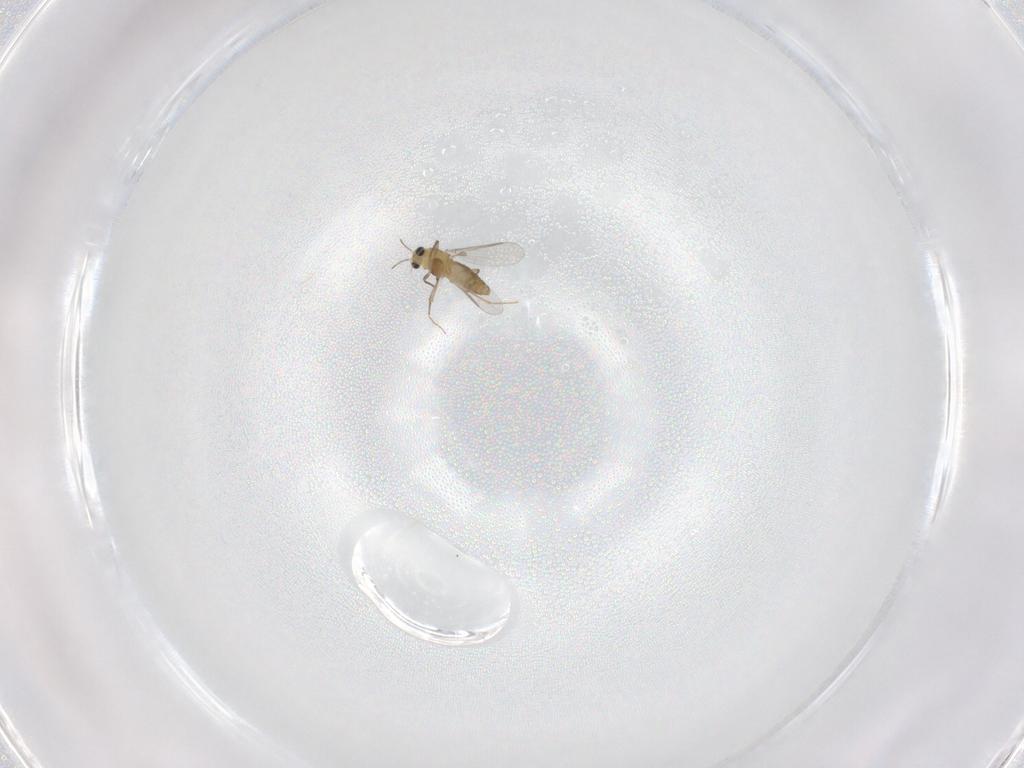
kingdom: Animalia
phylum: Arthropoda
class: Insecta
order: Diptera
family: Chironomidae
